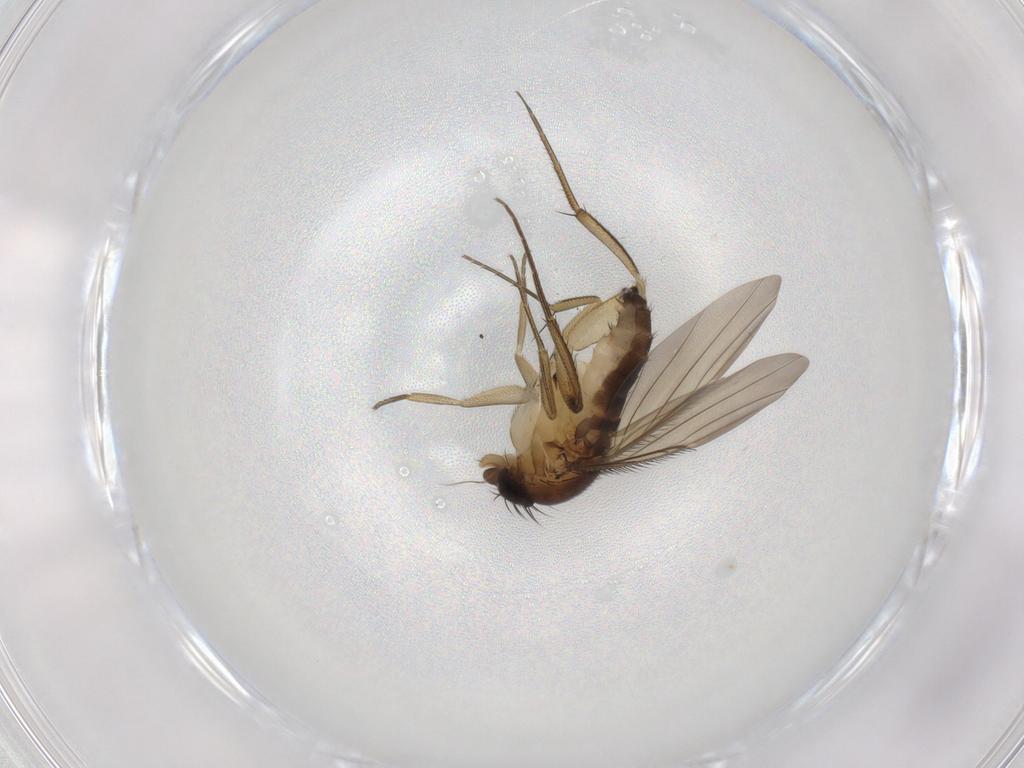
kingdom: Animalia
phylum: Arthropoda
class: Insecta
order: Diptera
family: Phoridae
